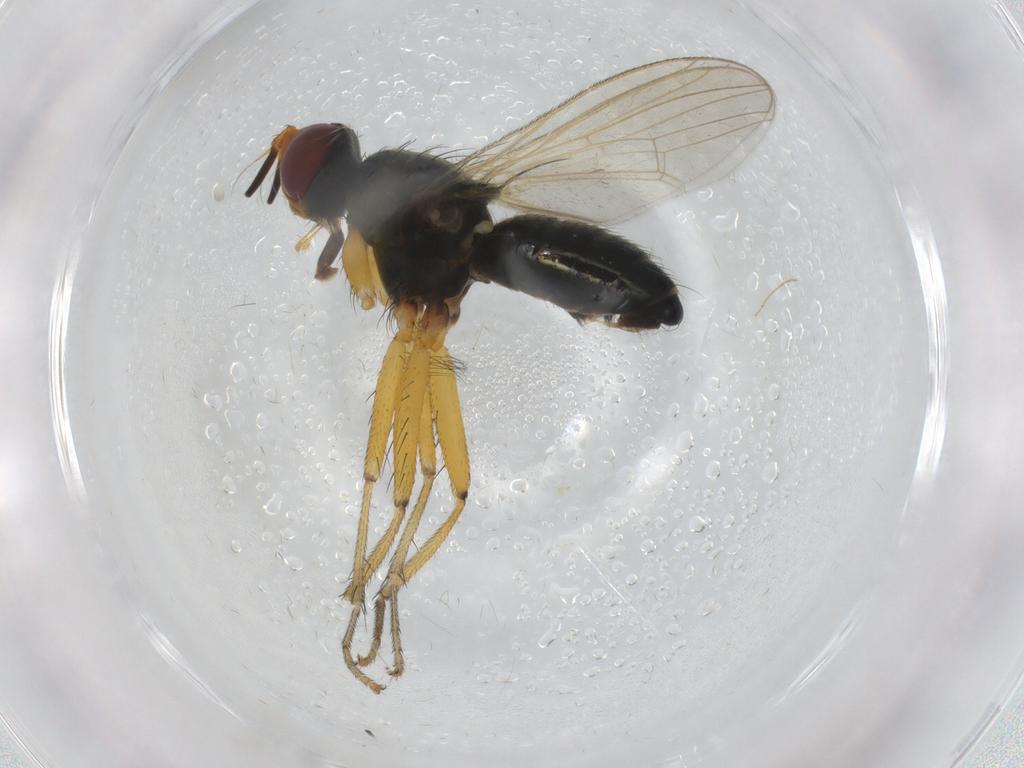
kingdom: Animalia
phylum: Arthropoda
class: Insecta
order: Diptera
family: Muscidae
